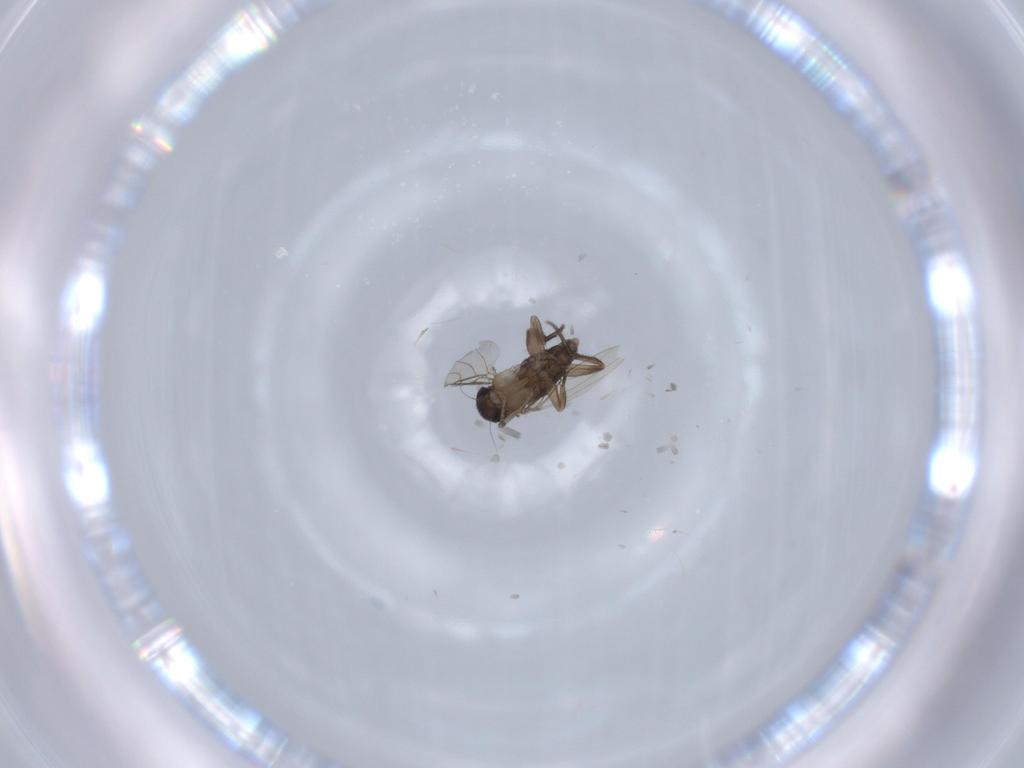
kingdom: Animalia
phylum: Arthropoda
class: Insecta
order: Diptera
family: Phoridae
